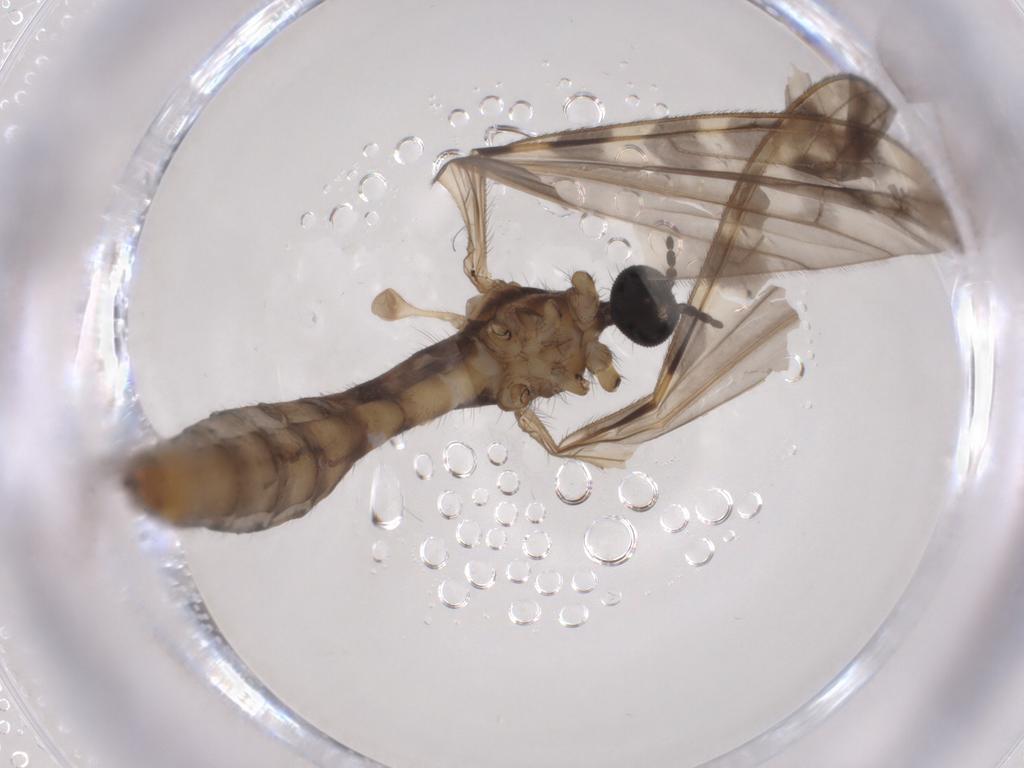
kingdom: Animalia
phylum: Arthropoda
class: Insecta
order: Diptera
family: Limoniidae
